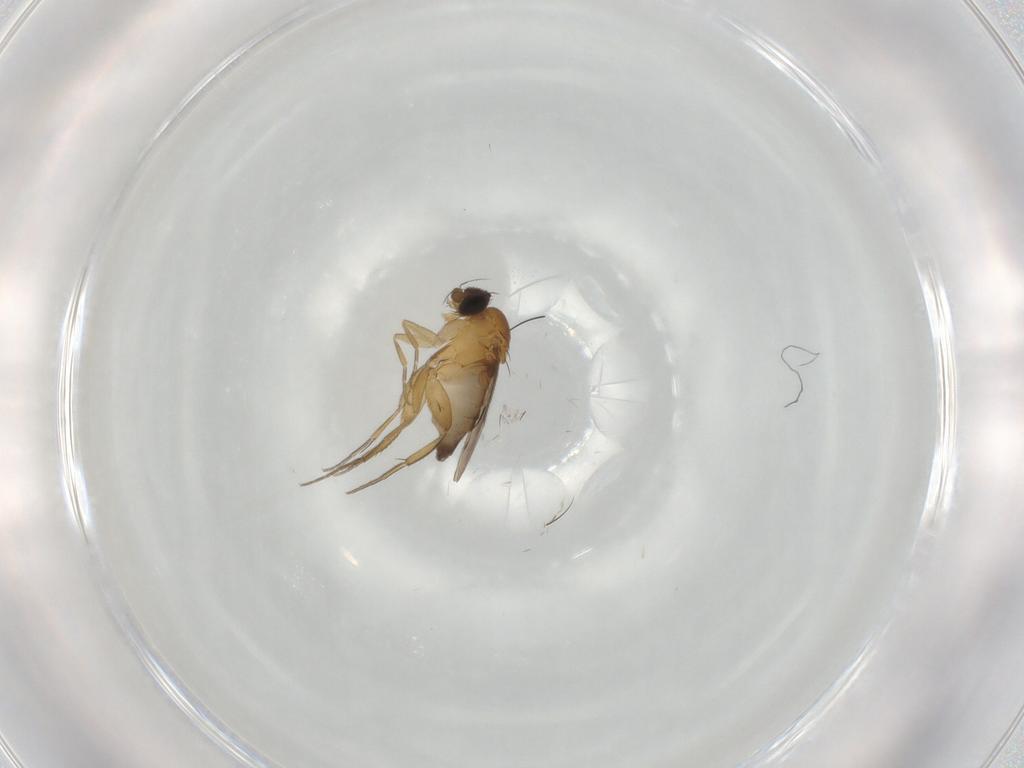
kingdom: Animalia
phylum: Arthropoda
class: Insecta
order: Diptera
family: Phoridae
